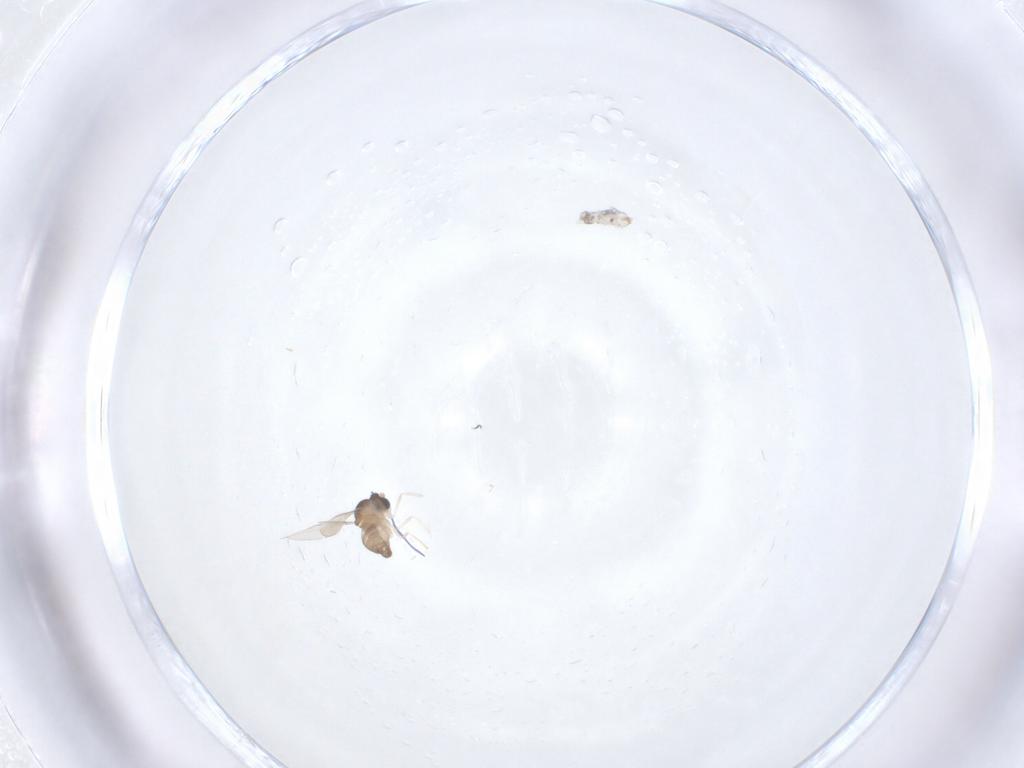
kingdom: Animalia
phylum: Arthropoda
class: Insecta
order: Diptera
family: Cecidomyiidae
